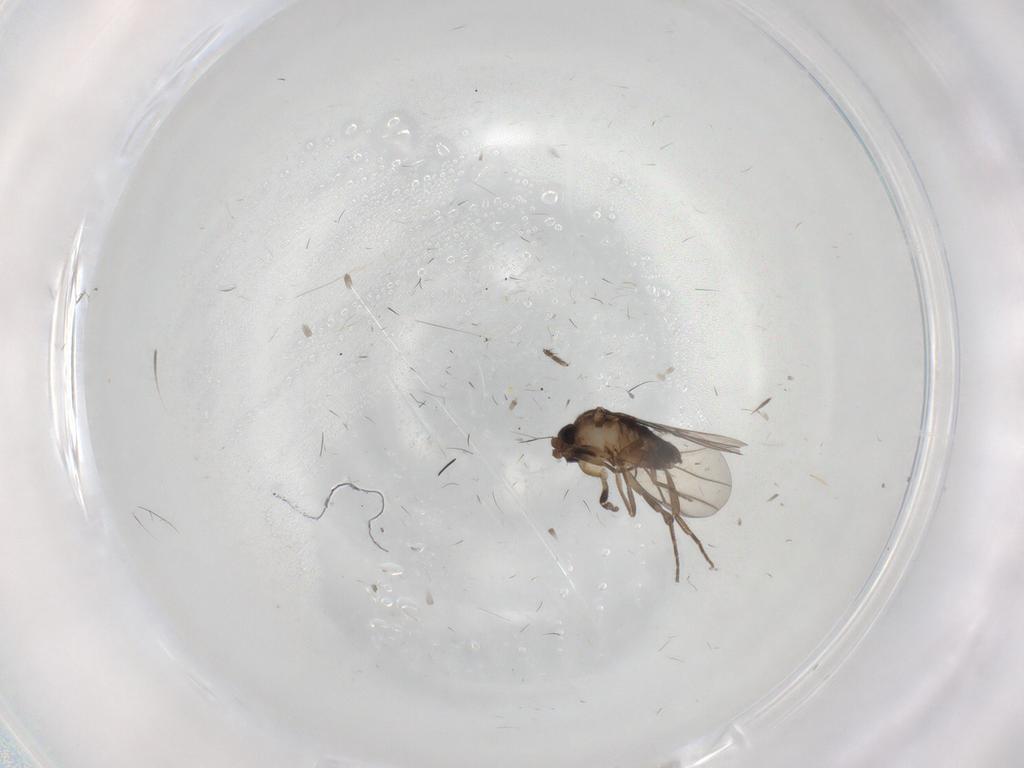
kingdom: Animalia
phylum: Arthropoda
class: Insecta
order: Diptera
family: Phoridae
